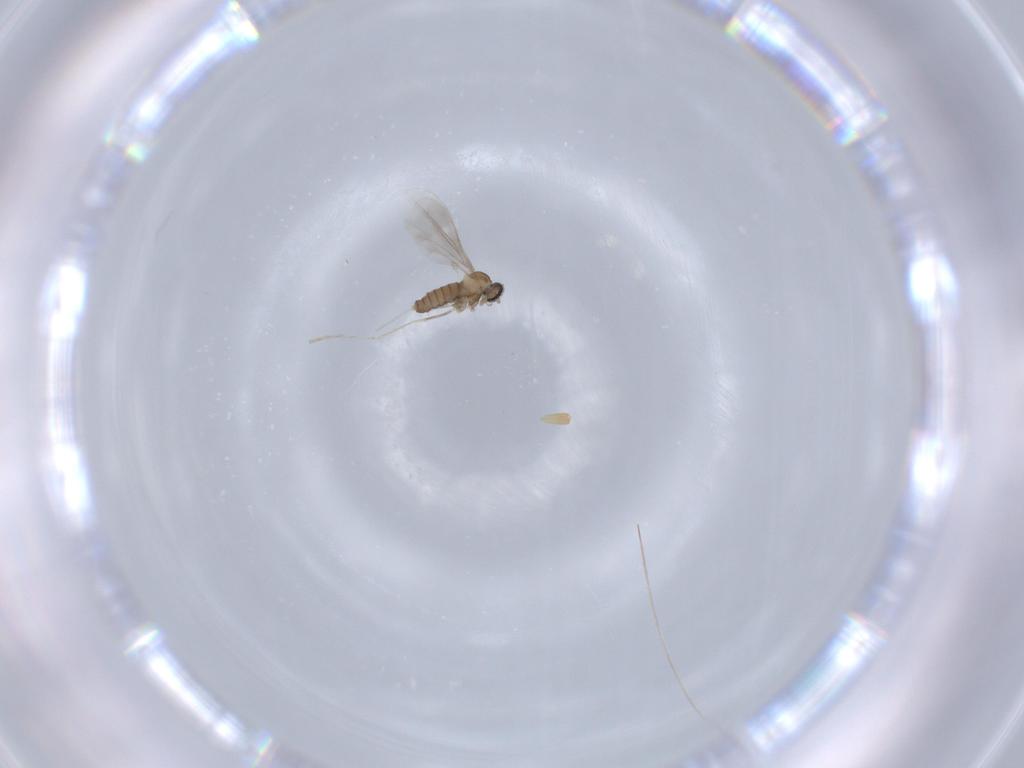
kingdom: Animalia
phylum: Arthropoda
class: Insecta
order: Diptera
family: Cecidomyiidae
